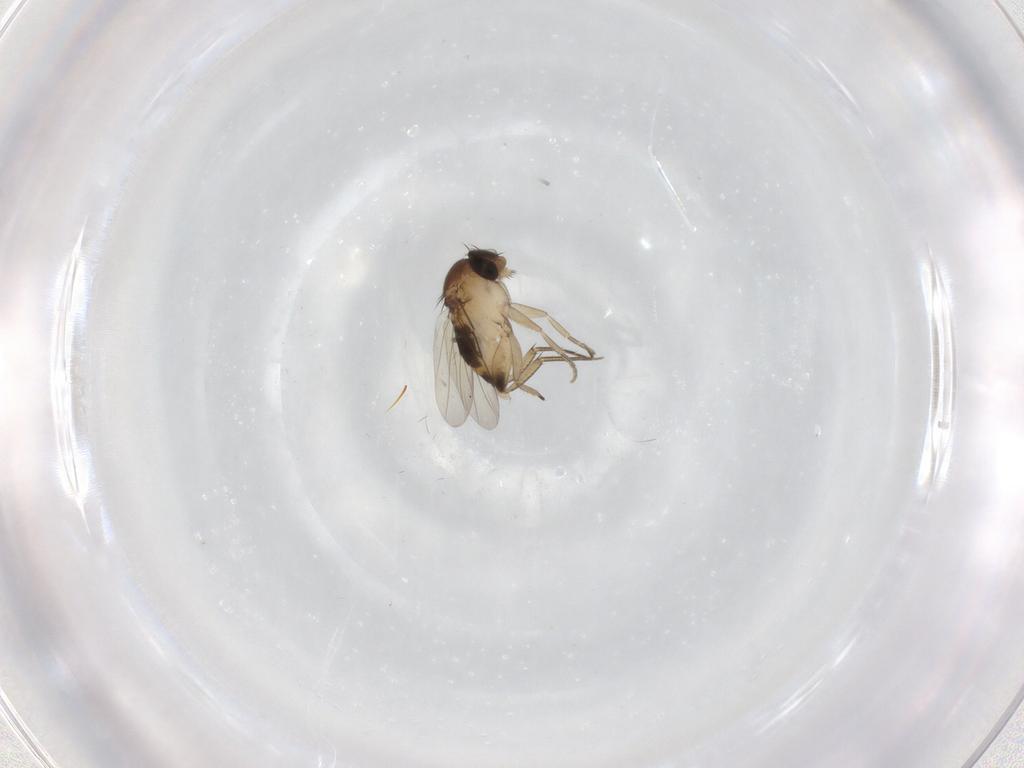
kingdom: Animalia
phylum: Arthropoda
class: Insecta
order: Diptera
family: Phoridae
